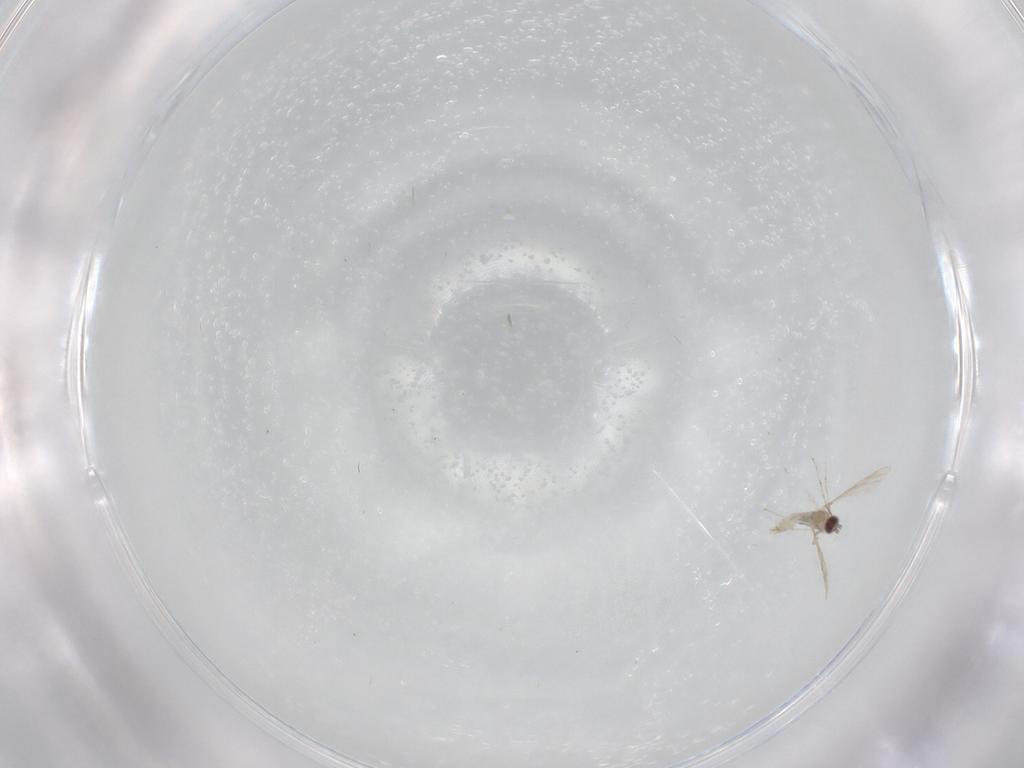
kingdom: Animalia
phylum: Arthropoda
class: Insecta
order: Diptera
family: Cecidomyiidae
